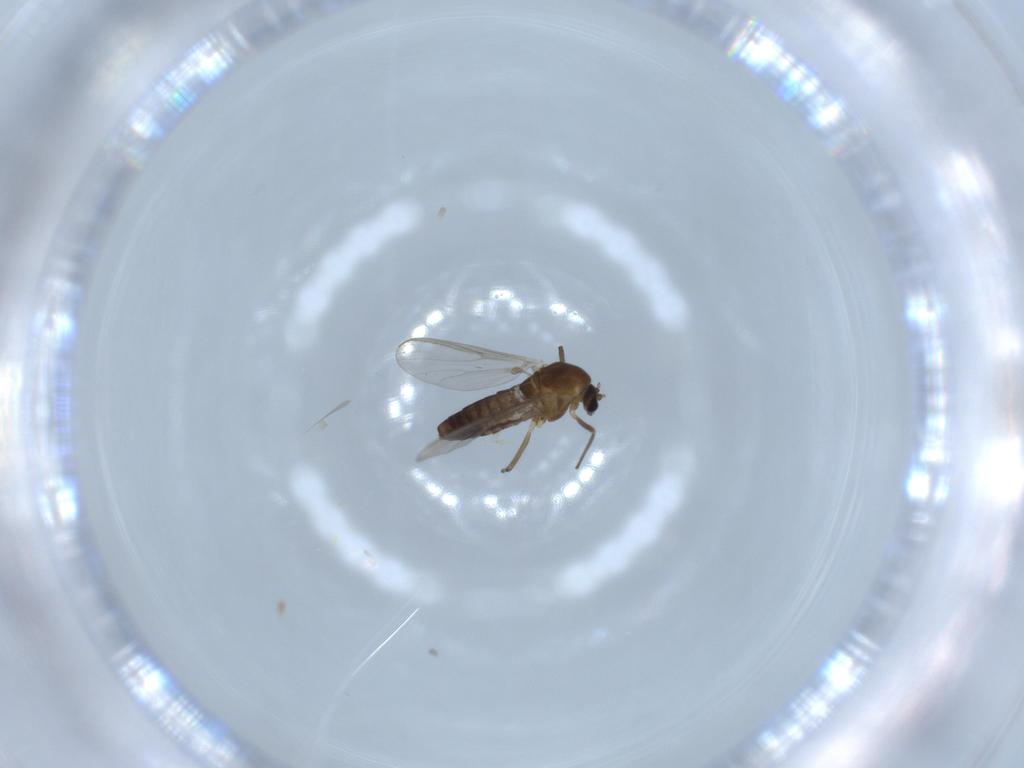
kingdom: Animalia
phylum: Arthropoda
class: Insecta
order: Diptera
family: Chironomidae
